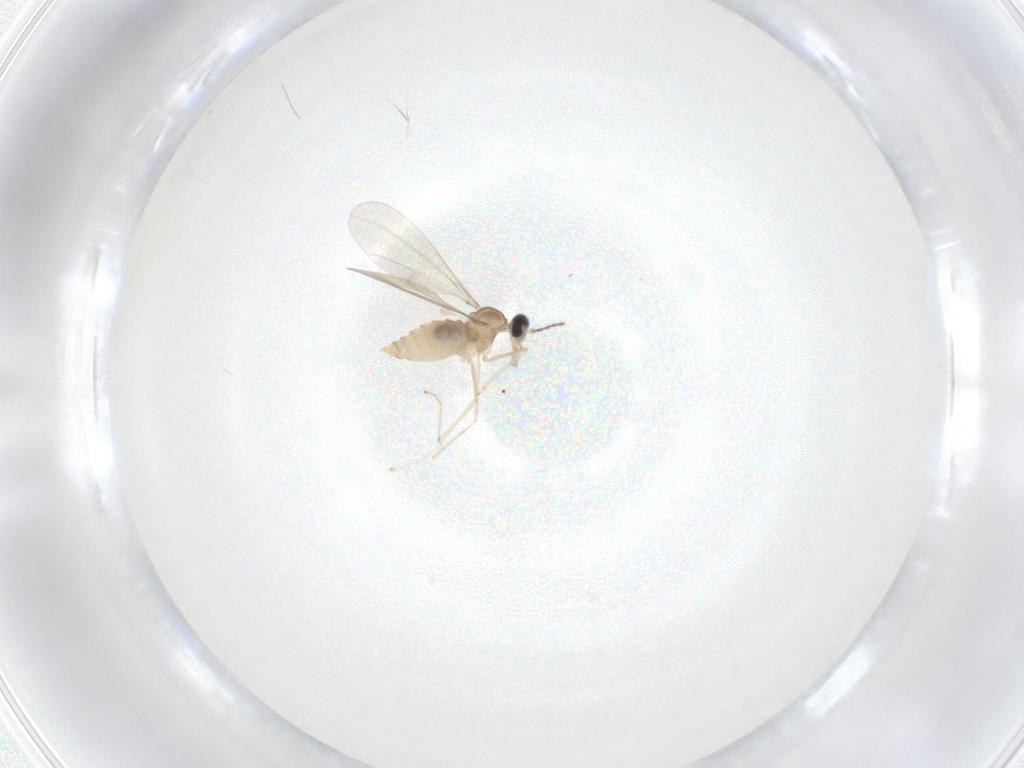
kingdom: Animalia
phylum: Arthropoda
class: Insecta
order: Diptera
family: Cecidomyiidae
